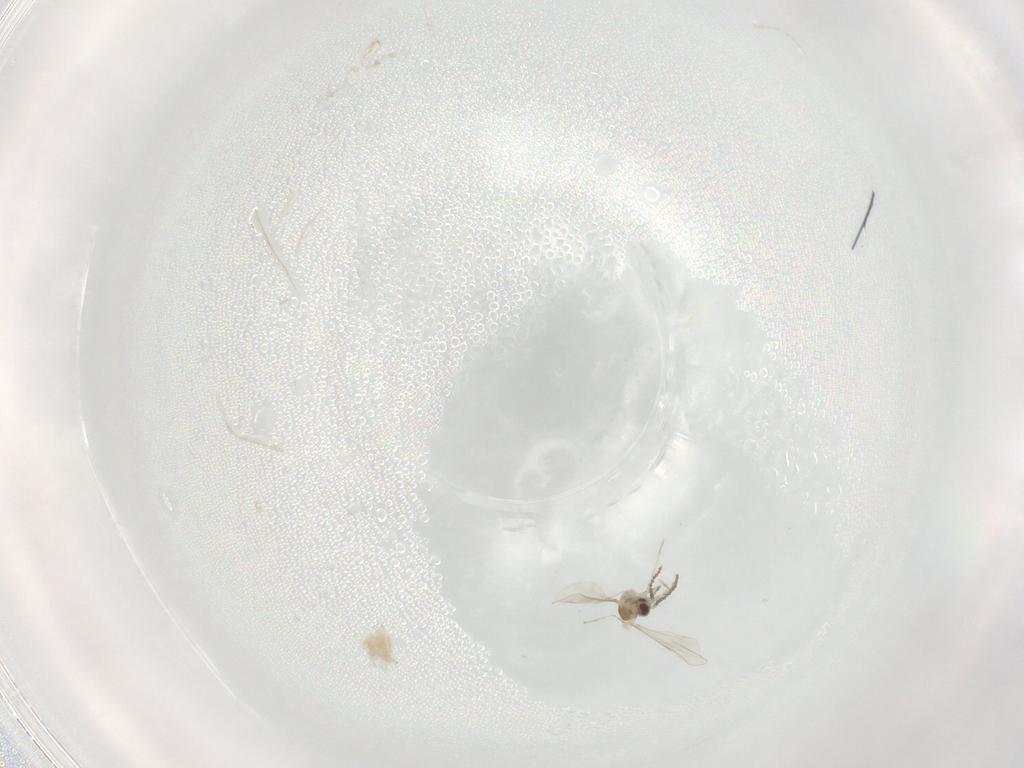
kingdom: Animalia
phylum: Arthropoda
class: Insecta
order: Diptera
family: Cecidomyiidae
